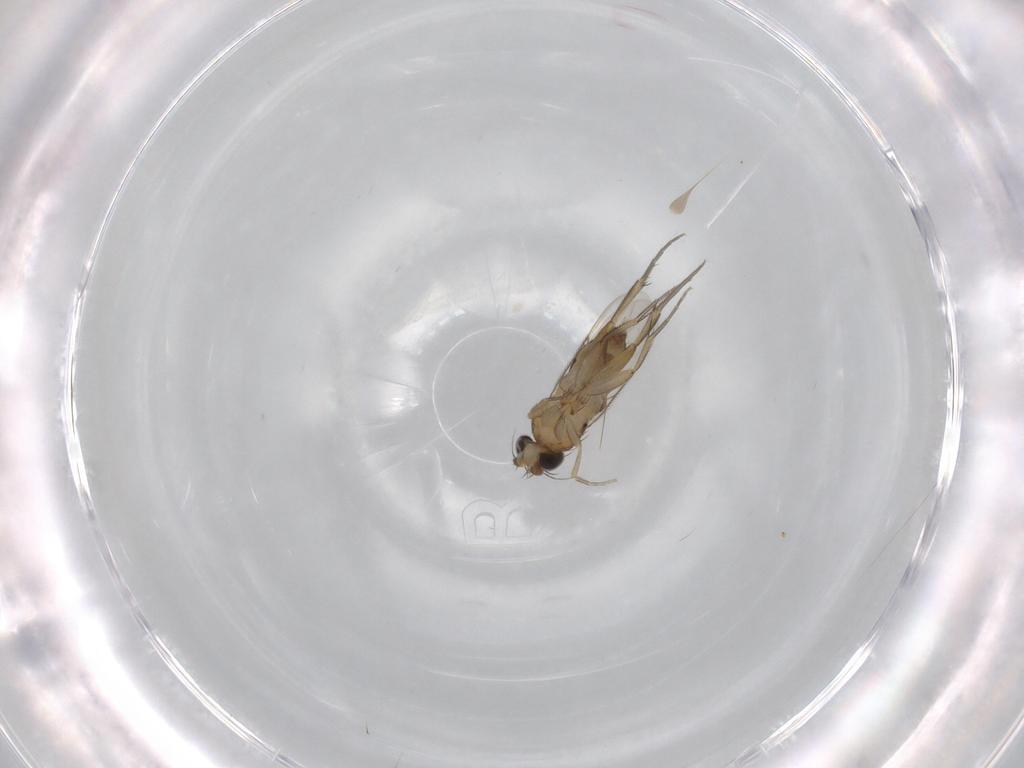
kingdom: Animalia
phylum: Arthropoda
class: Insecta
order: Diptera
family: Phoridae
